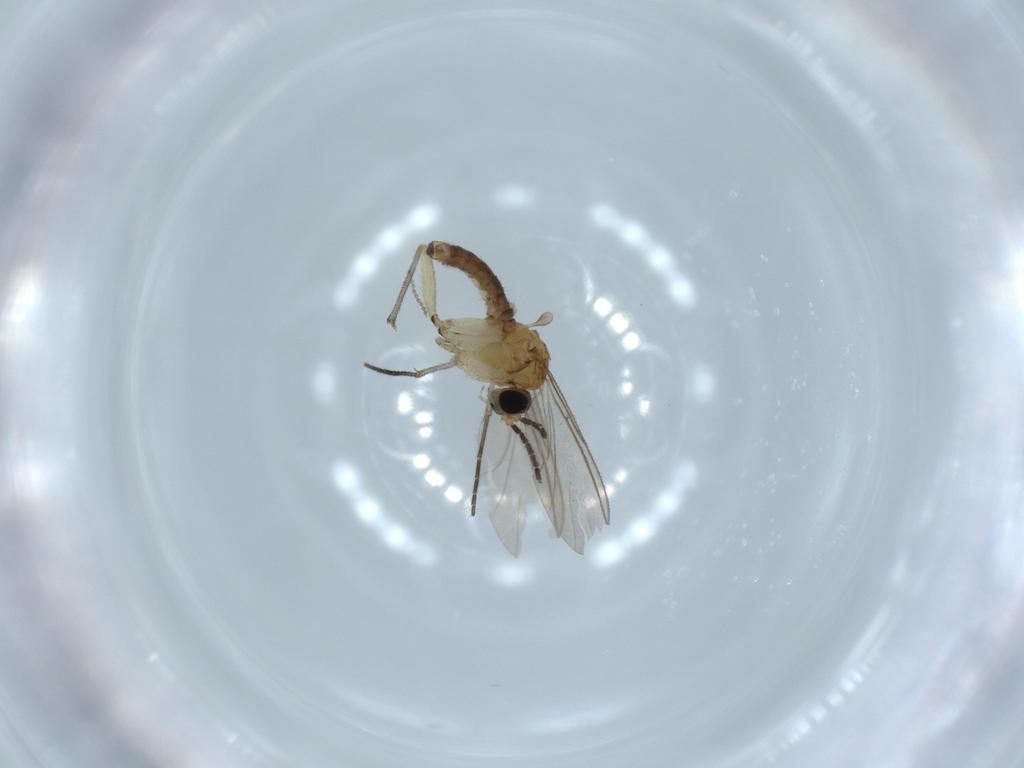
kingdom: Animalia
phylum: Arthropoda
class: Insecta
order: Diptera
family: Sciaridae
